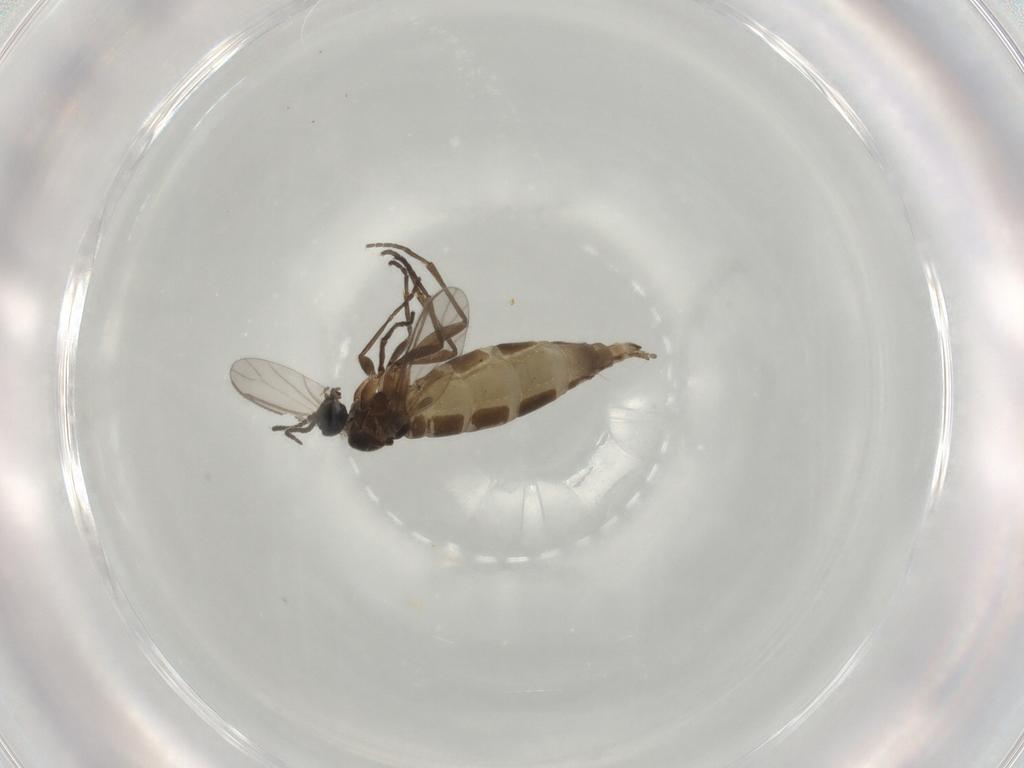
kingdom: Animalia
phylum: Arthropoda
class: Insecta
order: Diptera
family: Sciaridae
